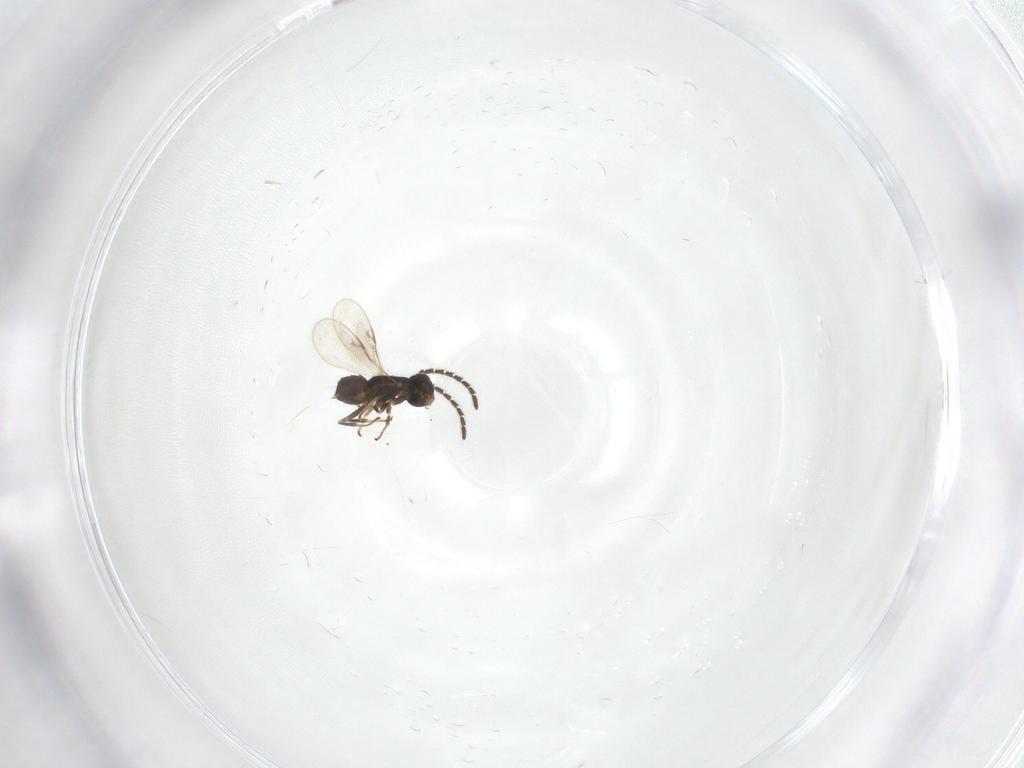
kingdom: Animalia
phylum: Arthropoda
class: Insecta
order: Hymenoptera
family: Encyrtidae
